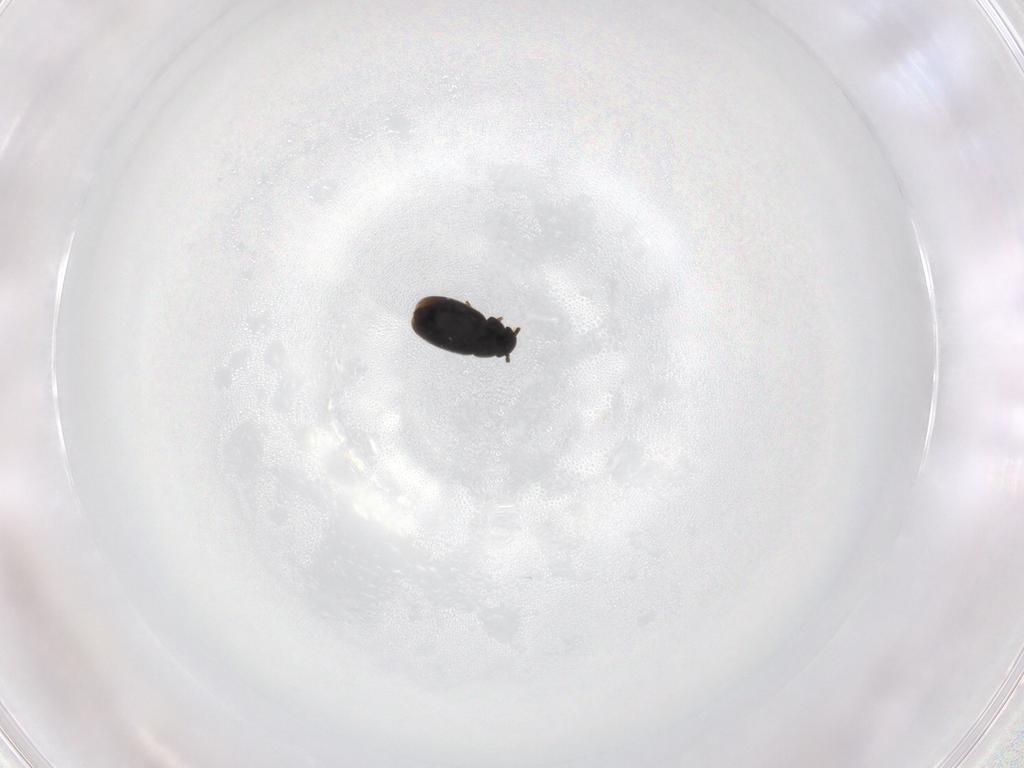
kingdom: Animalia
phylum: Arthropoda
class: Insecta
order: Coleoptera
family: Ptiliidae
